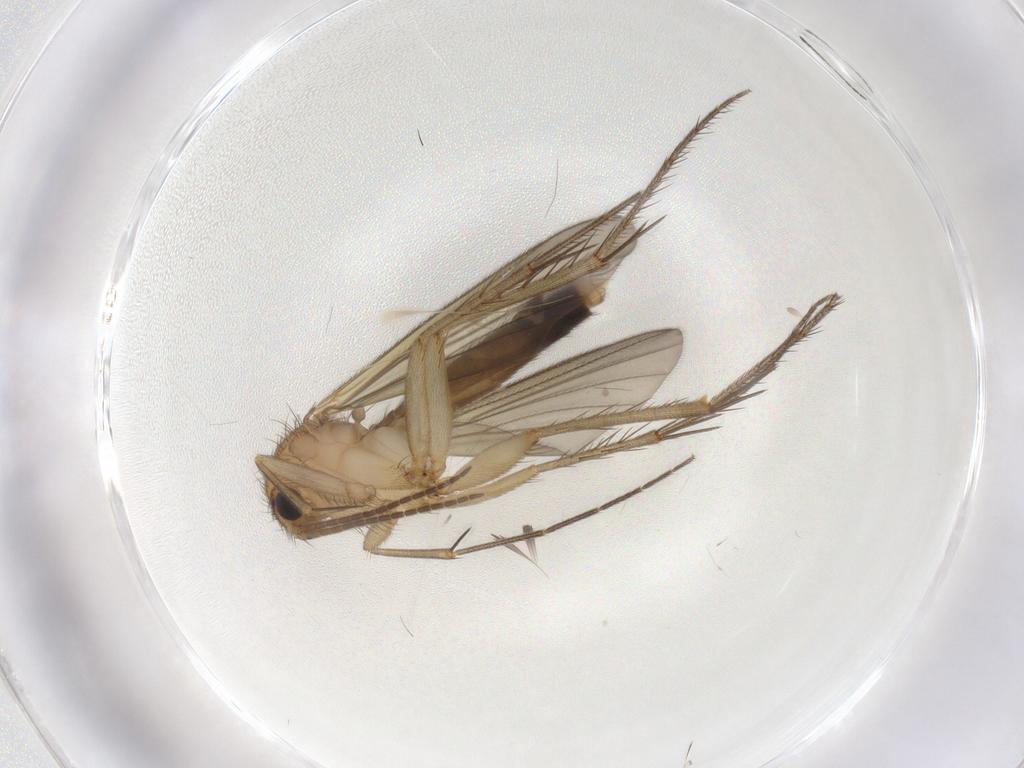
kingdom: Animalia
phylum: Arthropoda
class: Insecta
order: Diptera
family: Mycetophilidae
